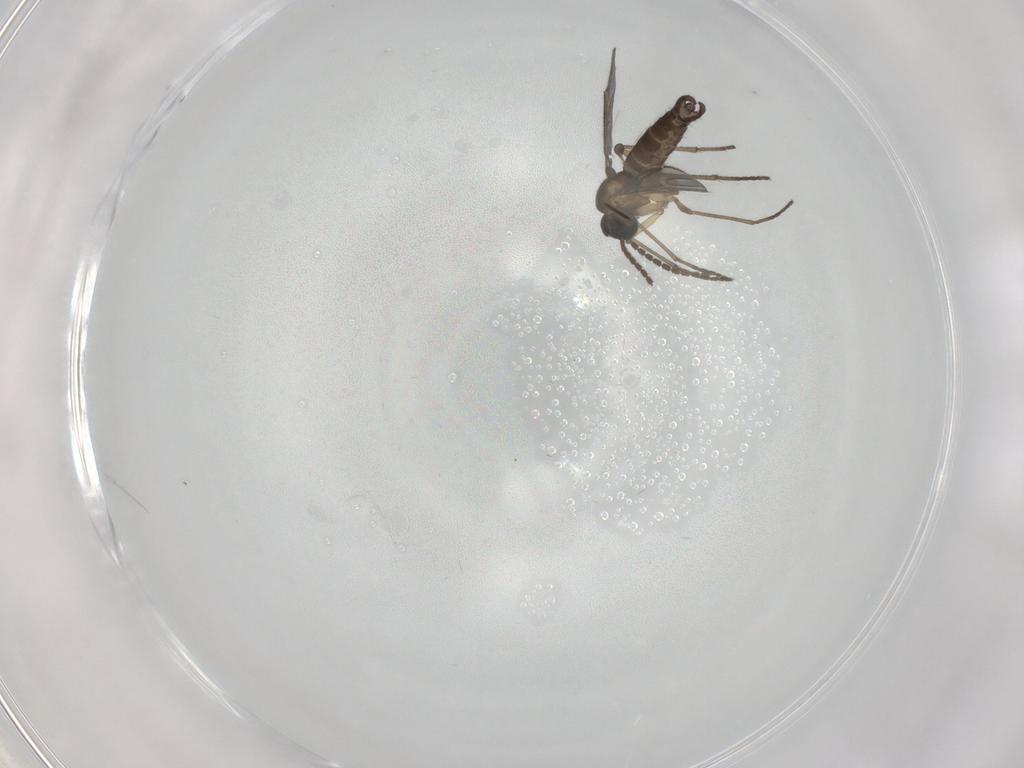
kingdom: Animalia
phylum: Arthropoda
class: Insecta
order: Diptera
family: Sciaridae
